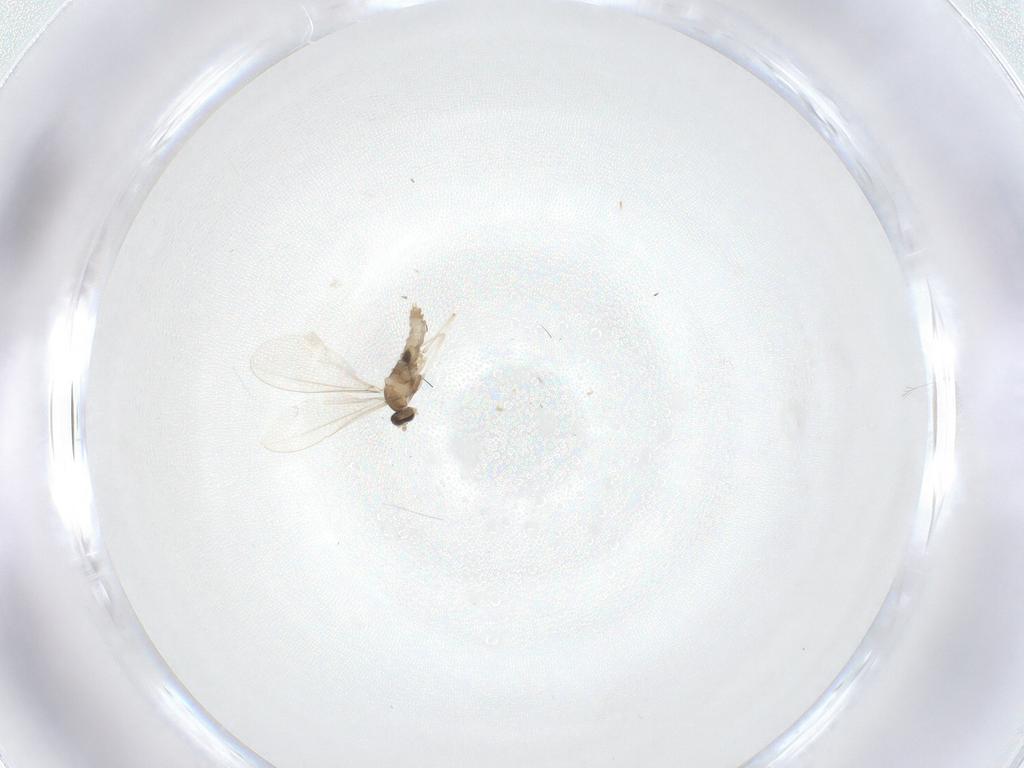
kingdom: Animalia
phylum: Arthropoda
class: Insecta
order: Diptera
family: Cecidomyiidae
